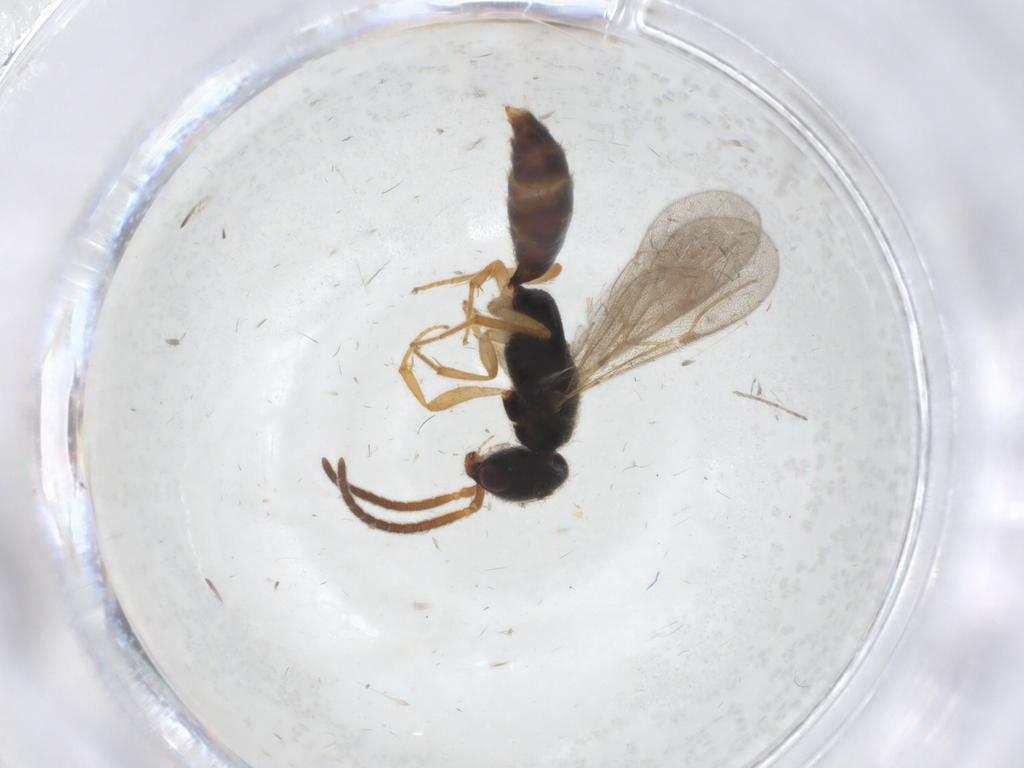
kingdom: Animalia
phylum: Arthropoda
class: Insecta
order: Hymenoptera
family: Bethylidae
